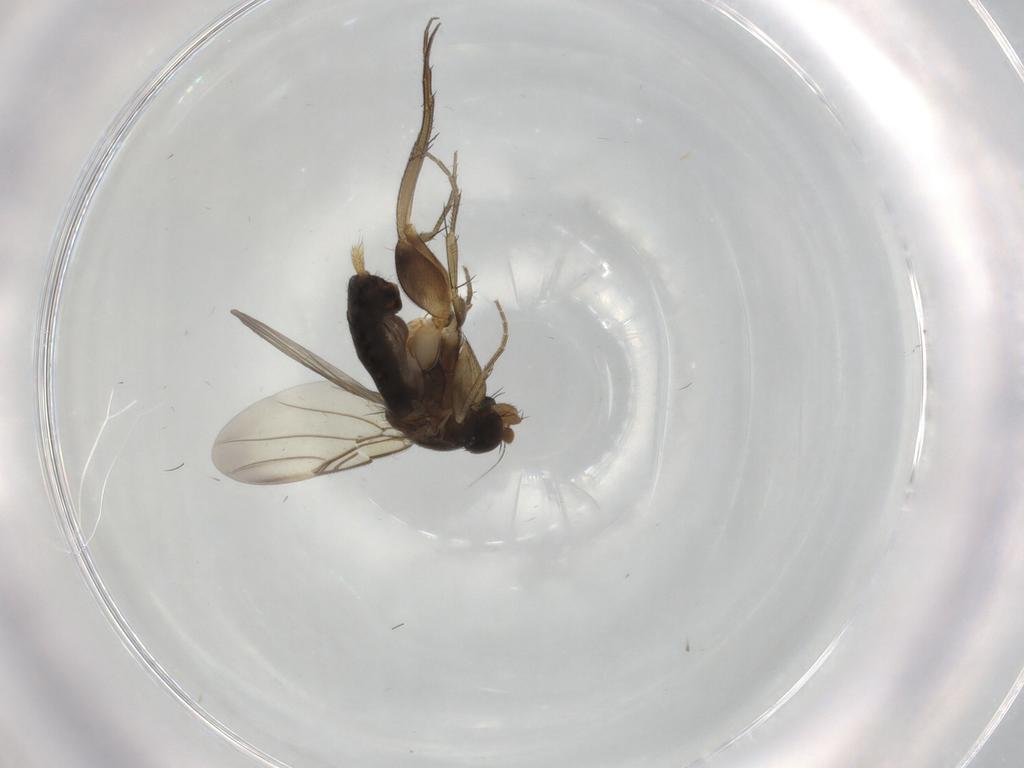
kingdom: Animalia
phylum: Arthropoda
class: Insecta
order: Diptera
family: Phoridae
